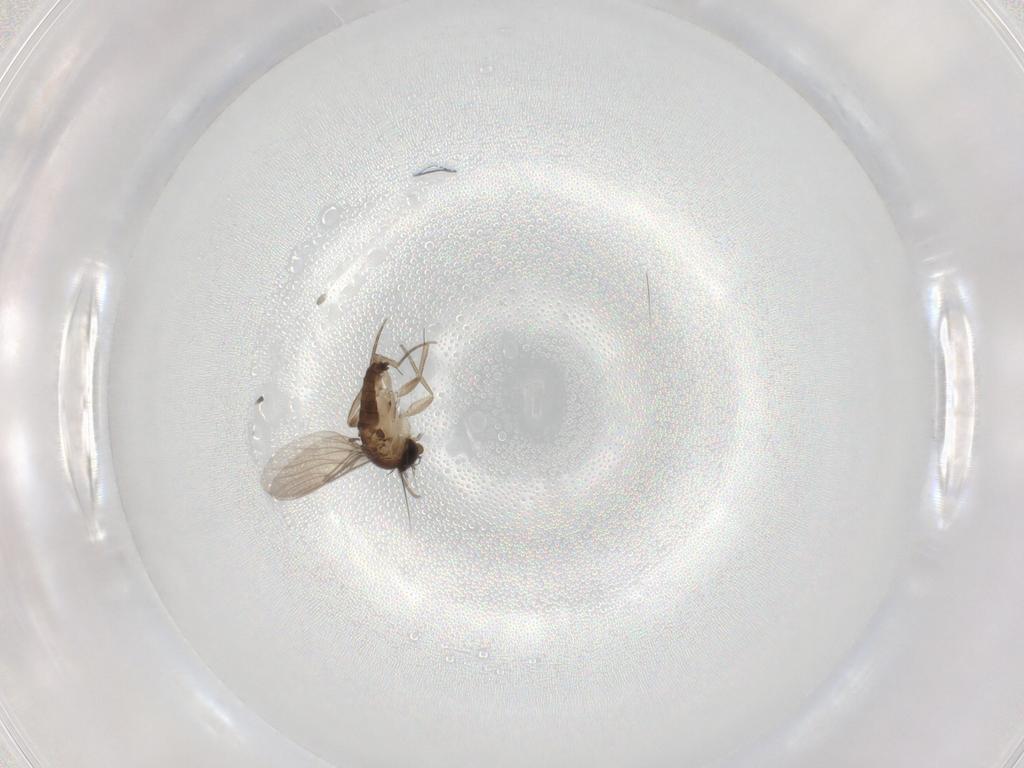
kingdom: Animalia
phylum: Arthropoda
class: Insecta
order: Diptera
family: Phoridae
